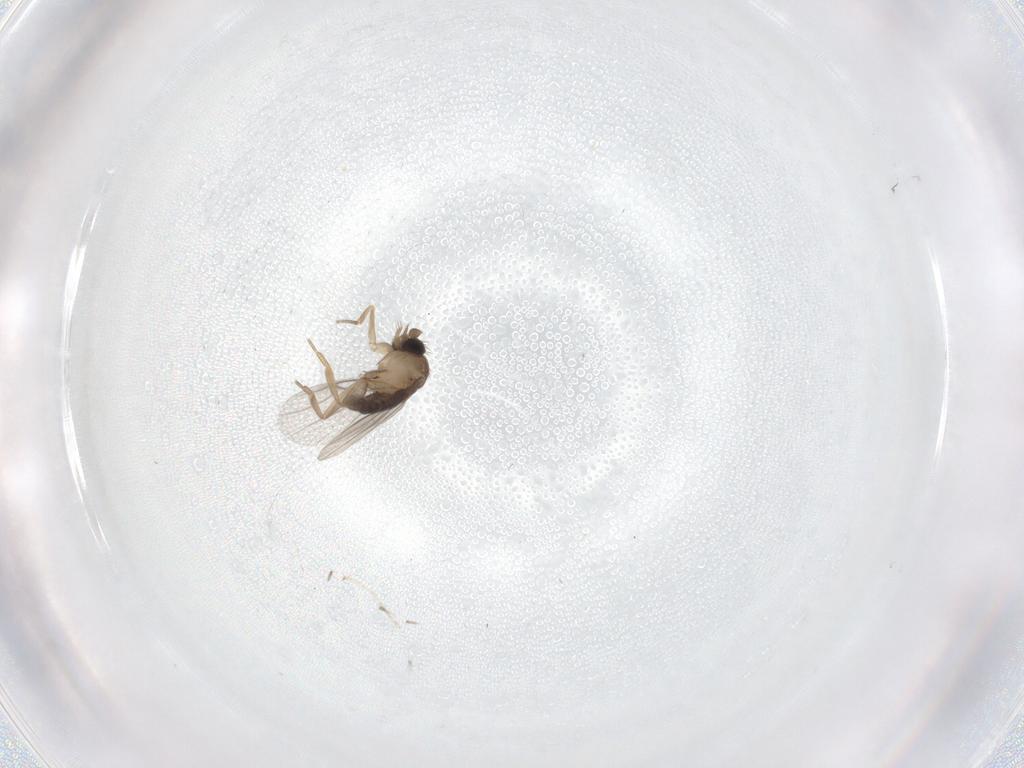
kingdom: Animalia
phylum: Arthropoda
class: Insecta
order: Diptera
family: Phoridae
